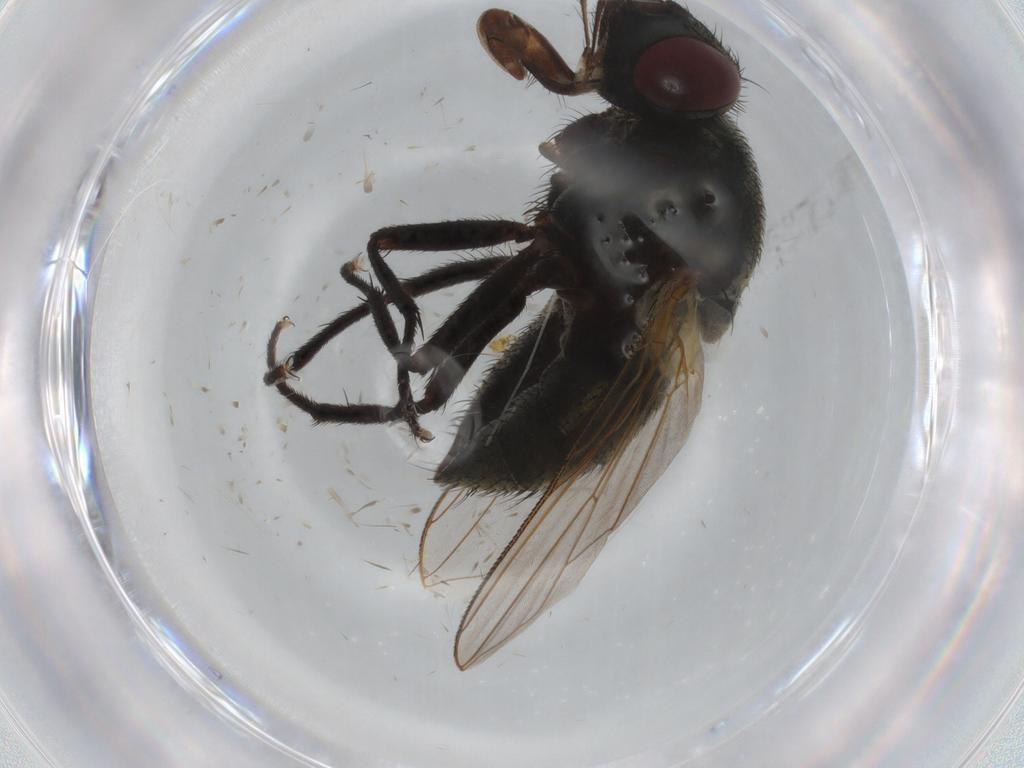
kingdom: Animalia
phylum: Arthropoda
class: Insecta
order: Diptera
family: Muscidae
